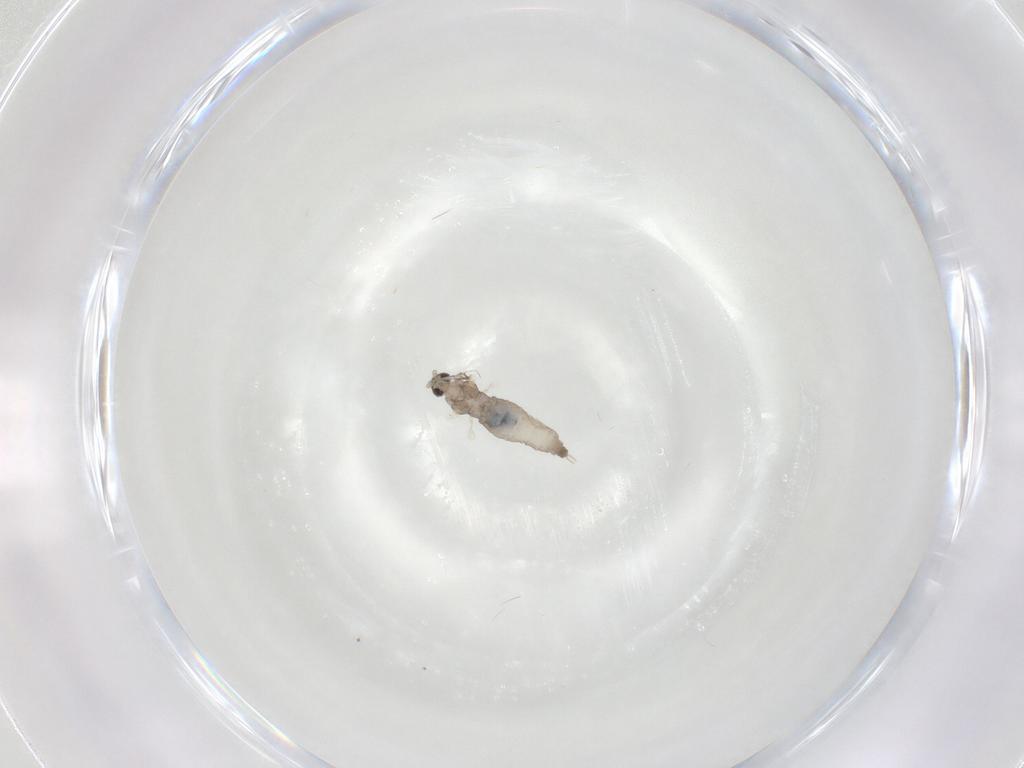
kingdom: Animalia
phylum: Arthropoda
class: Insecta
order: Diptera
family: Cecidomyiidae
